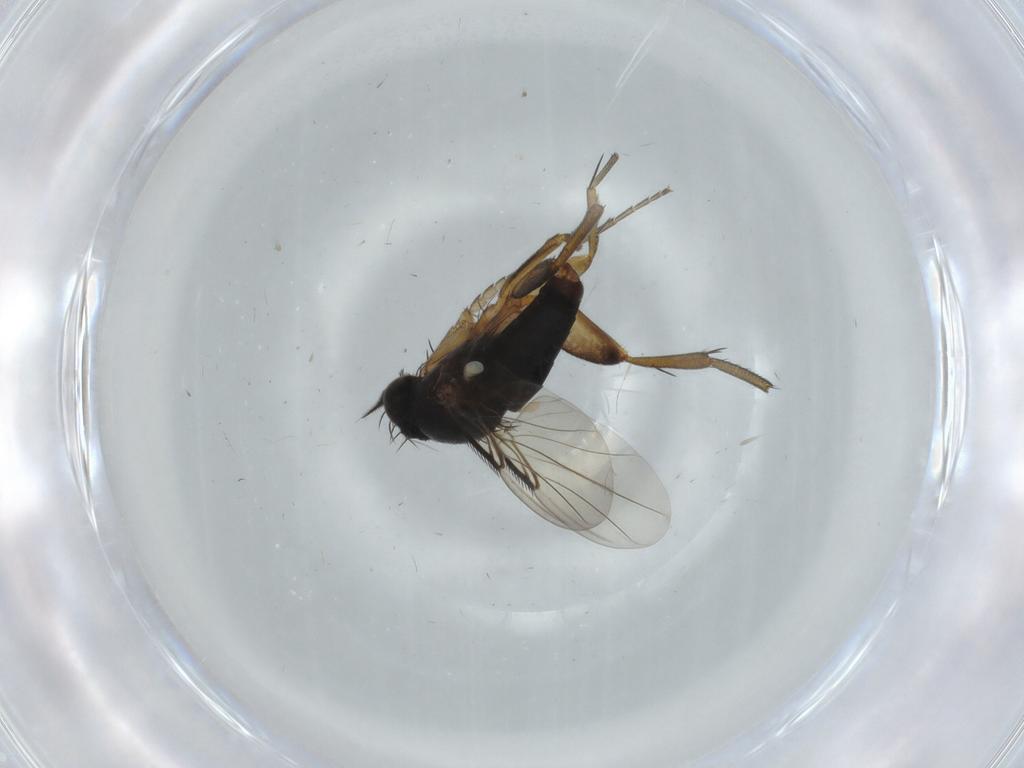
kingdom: Animalia
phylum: Arthropoda
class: Insecta
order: Diptera
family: Phoridae
